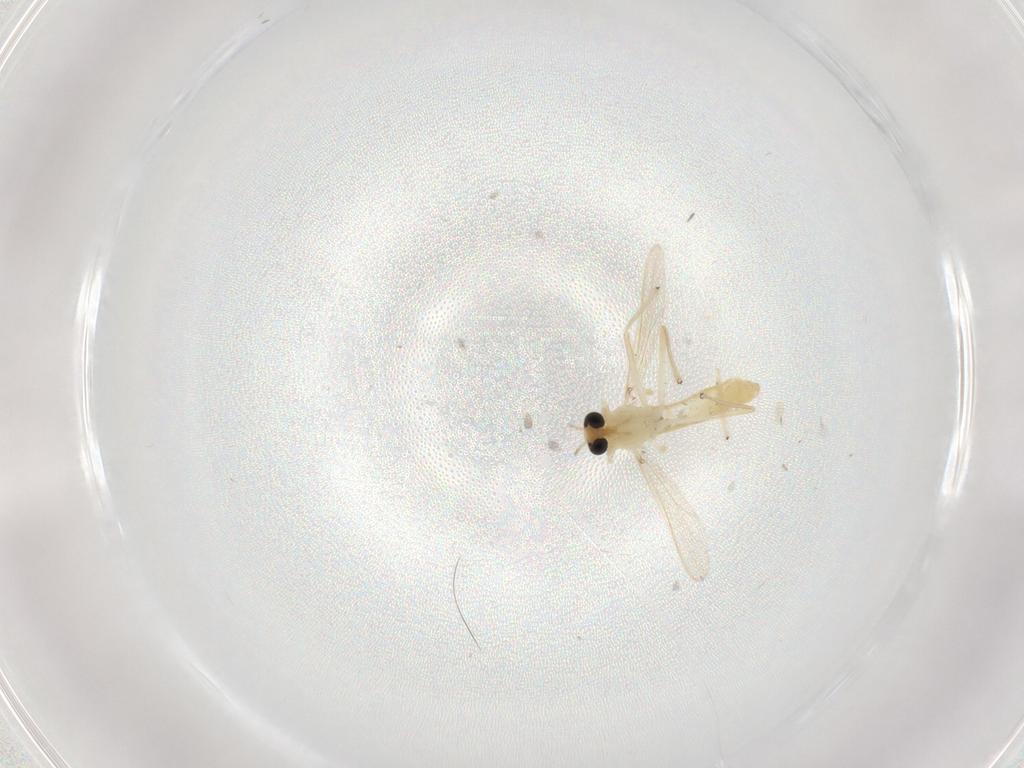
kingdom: Animalia
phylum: Arthropoda
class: Insecta
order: Diptera
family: Chironomidae
